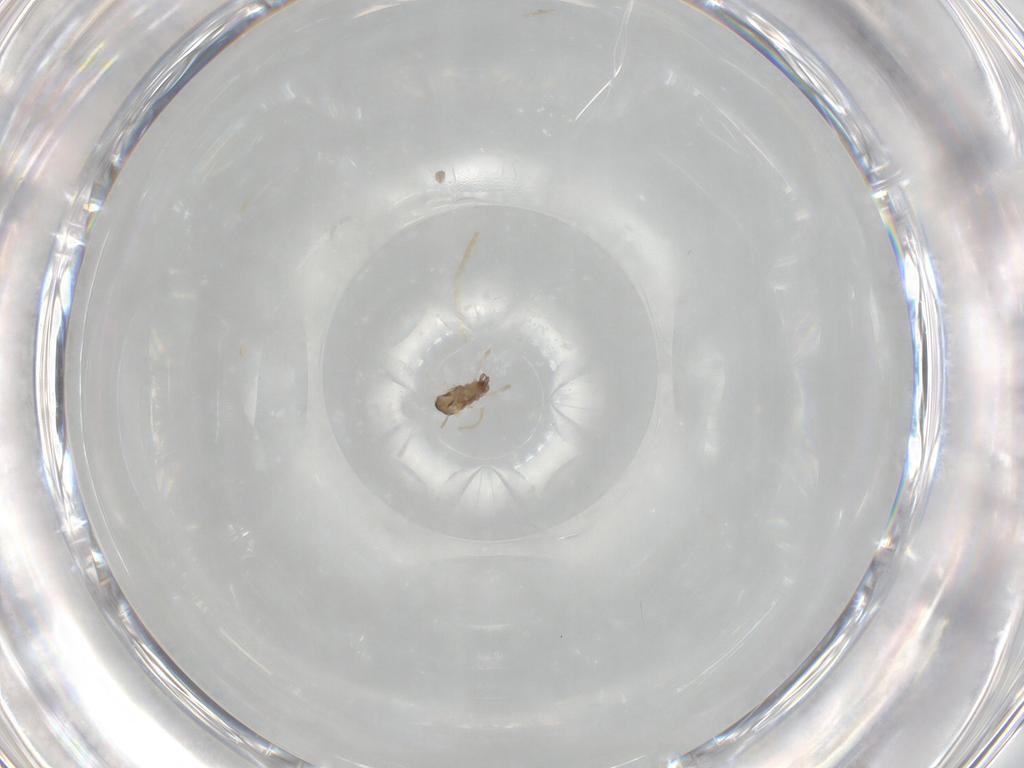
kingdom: Animalia
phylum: Arthropoda
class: Insecta
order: Diptera
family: Cecidomyiidae
